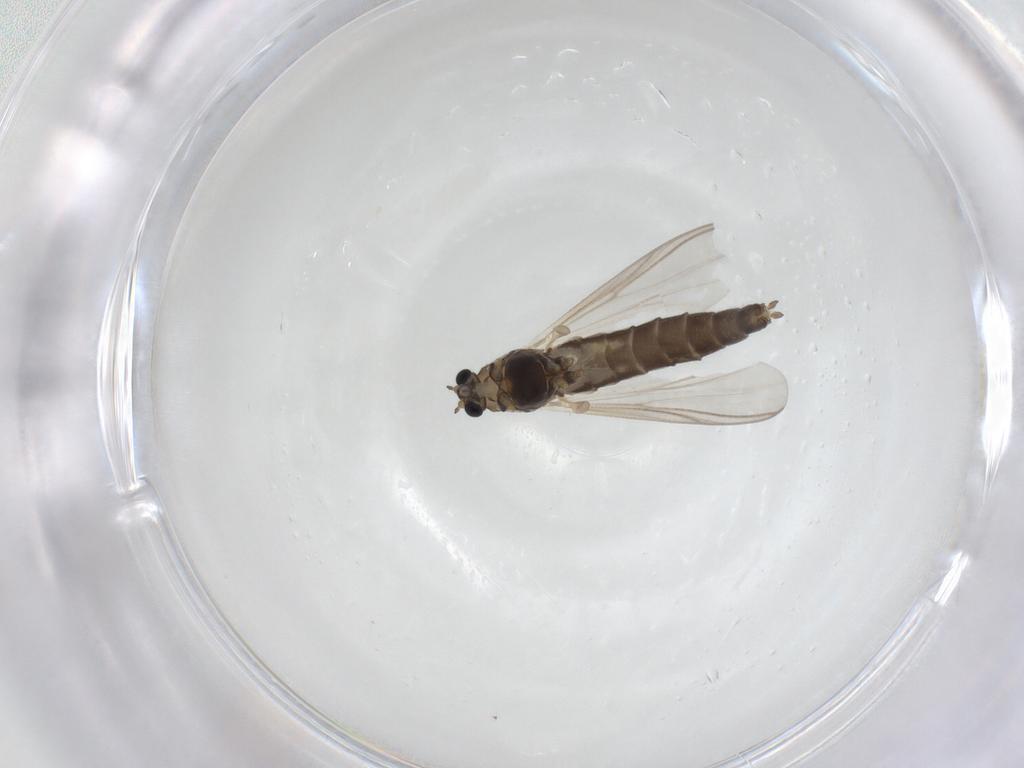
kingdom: Animalia
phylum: Arthropoda
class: Insecta
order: Diptera
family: Chironomidae
